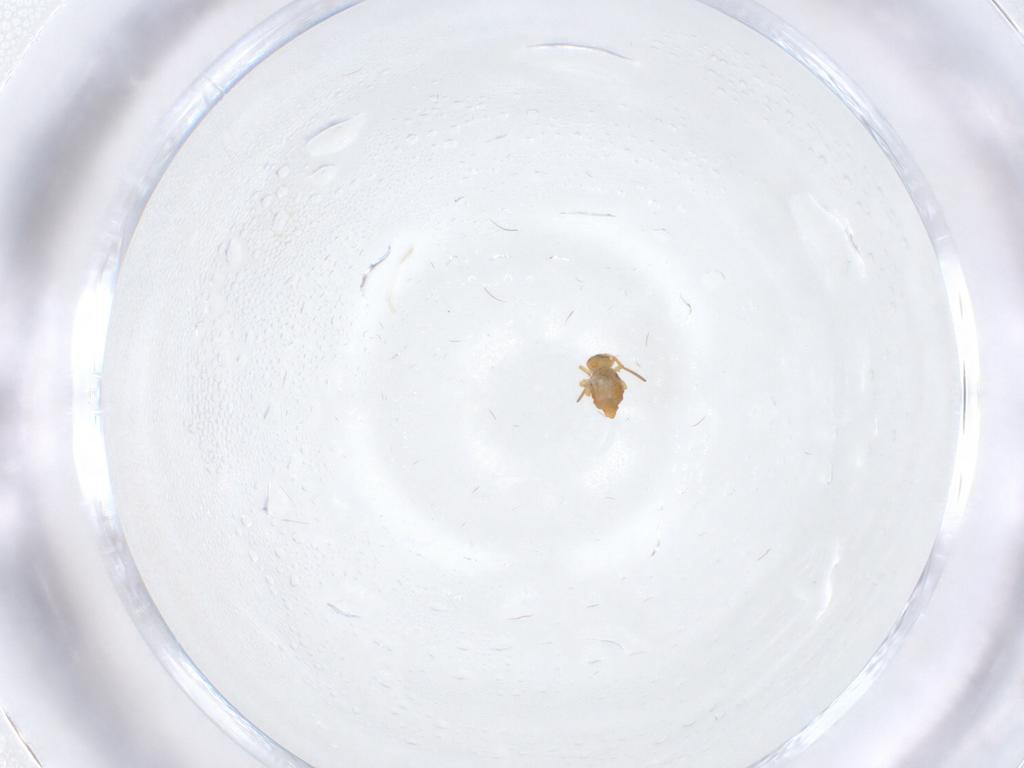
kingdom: Animalia
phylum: Arthropoda
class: Collembola
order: Symphypleona
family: Katiannidae
